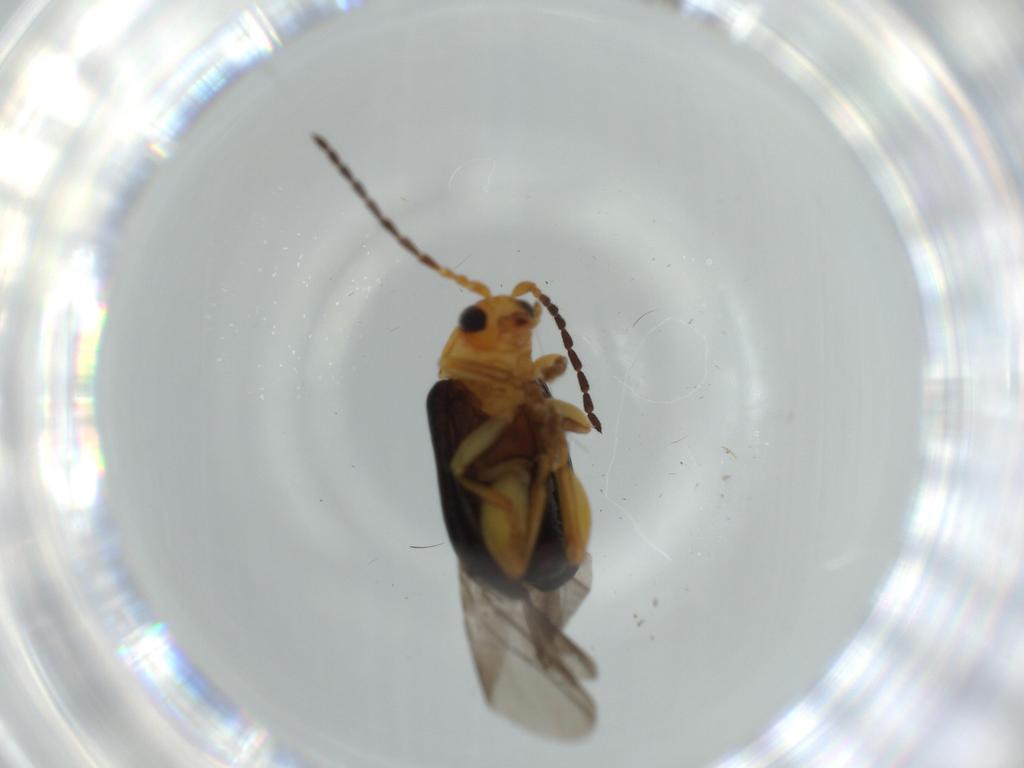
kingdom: Animalia
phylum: Arthropoda
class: Insecta
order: Coleoptera
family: Chrysomelidae
